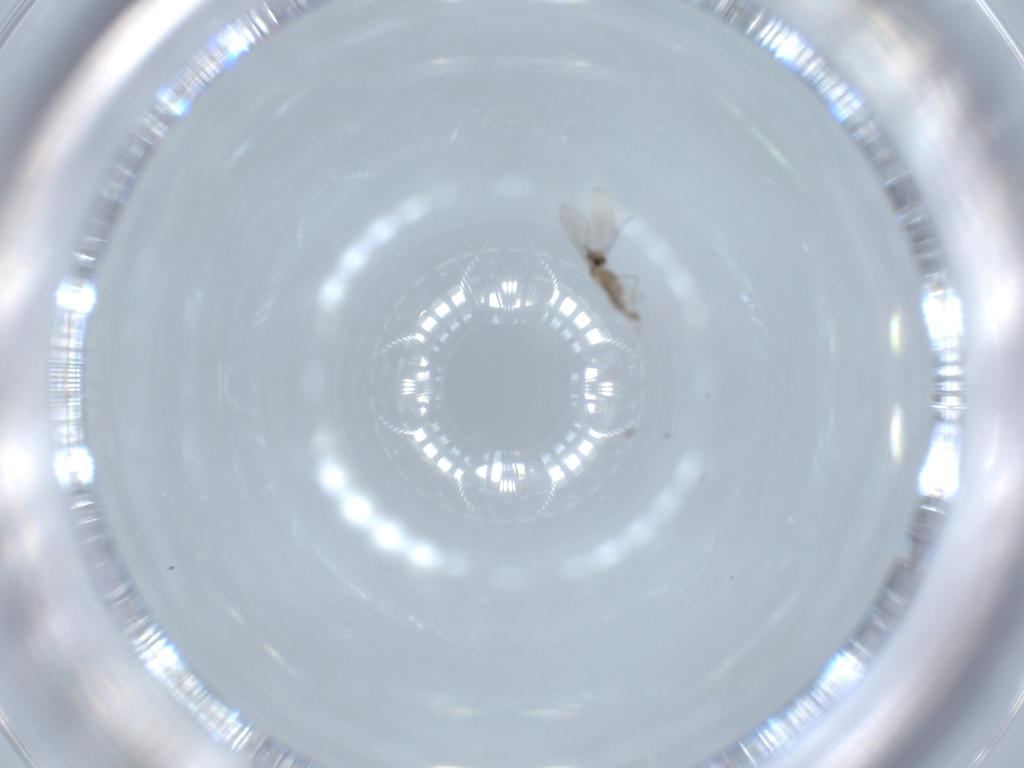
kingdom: Animalia
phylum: Arthropoda
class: Insecta
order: Diptera
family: Cecidomyiidae
